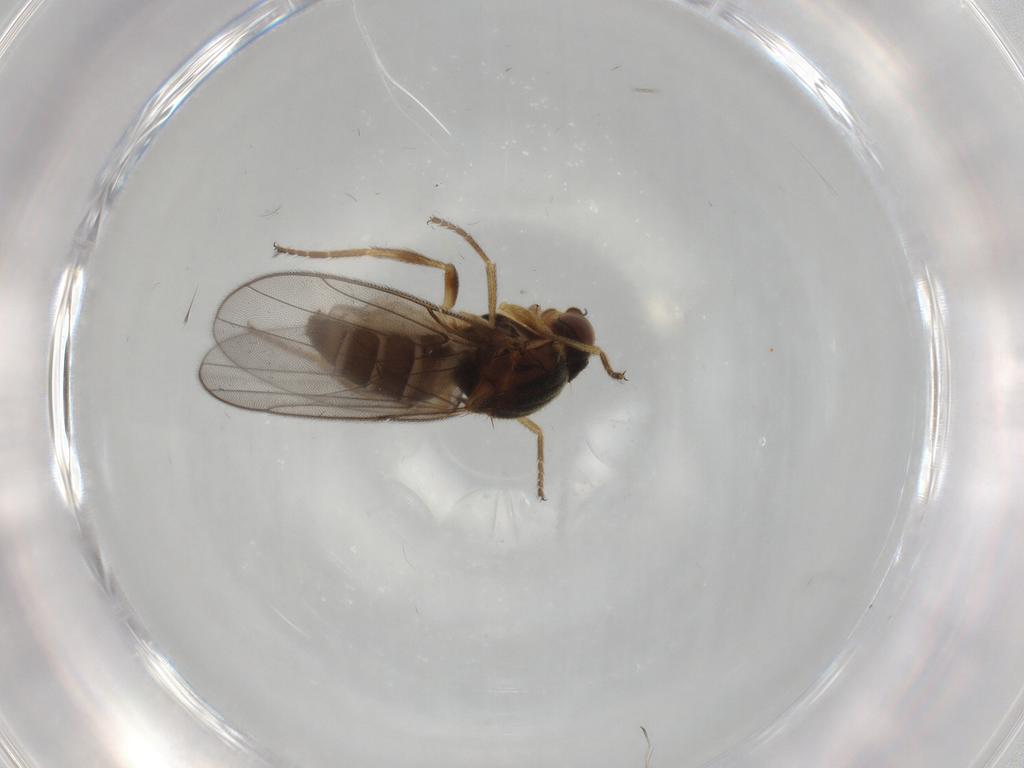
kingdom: Animalia
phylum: Arthropoda
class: Insecta
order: Diptera
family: Chloropidae
